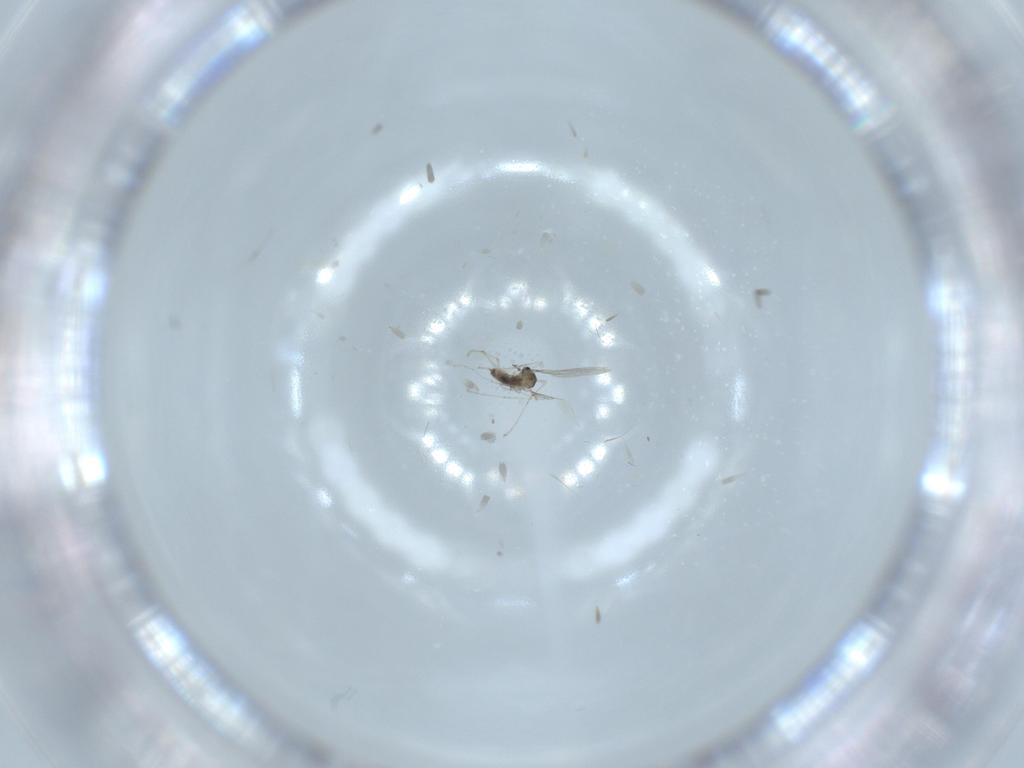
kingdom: Animalia
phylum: Arthropoda
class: Insecta
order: Diptera
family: Cecidomyiidae
